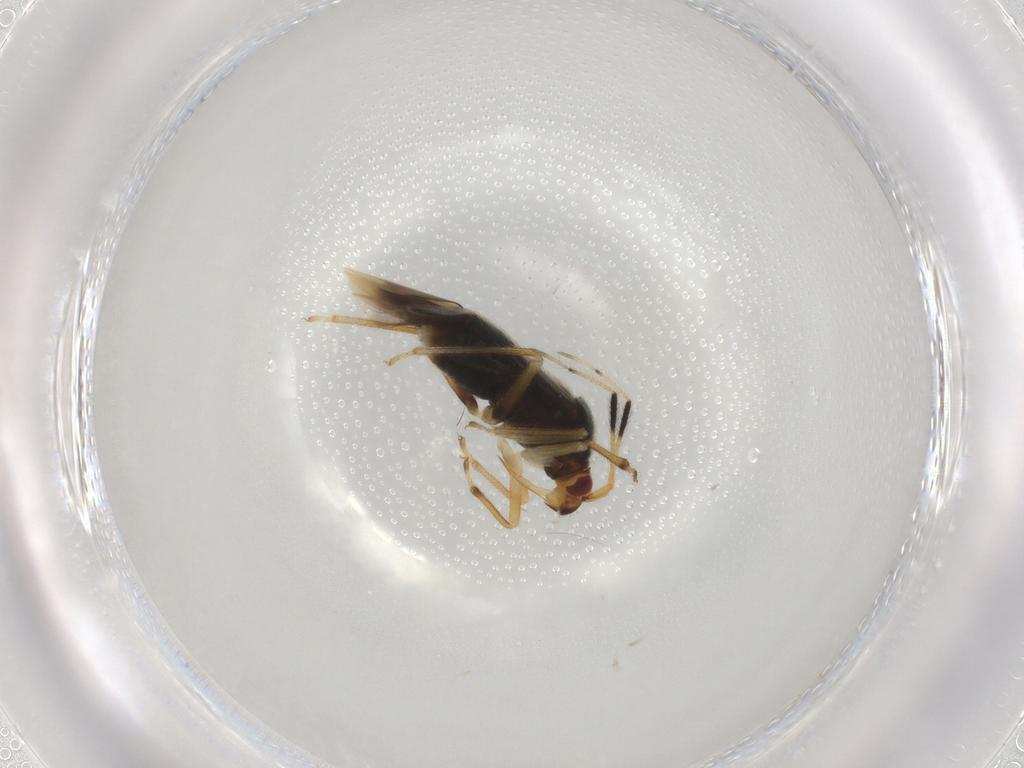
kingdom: Animalia
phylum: Arthropoda
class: Insecta
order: Hemiptera
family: Miridae
